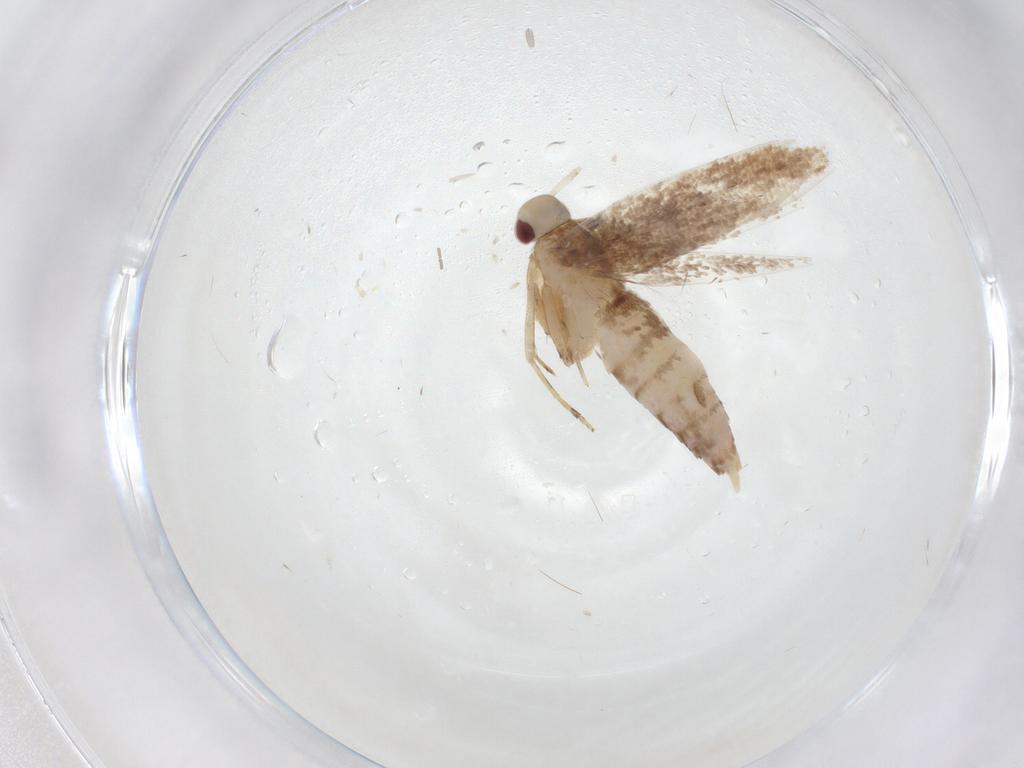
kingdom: Animalia
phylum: Arthropoda
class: Insecta
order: Lepidoptera
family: Cosmopterigidae
